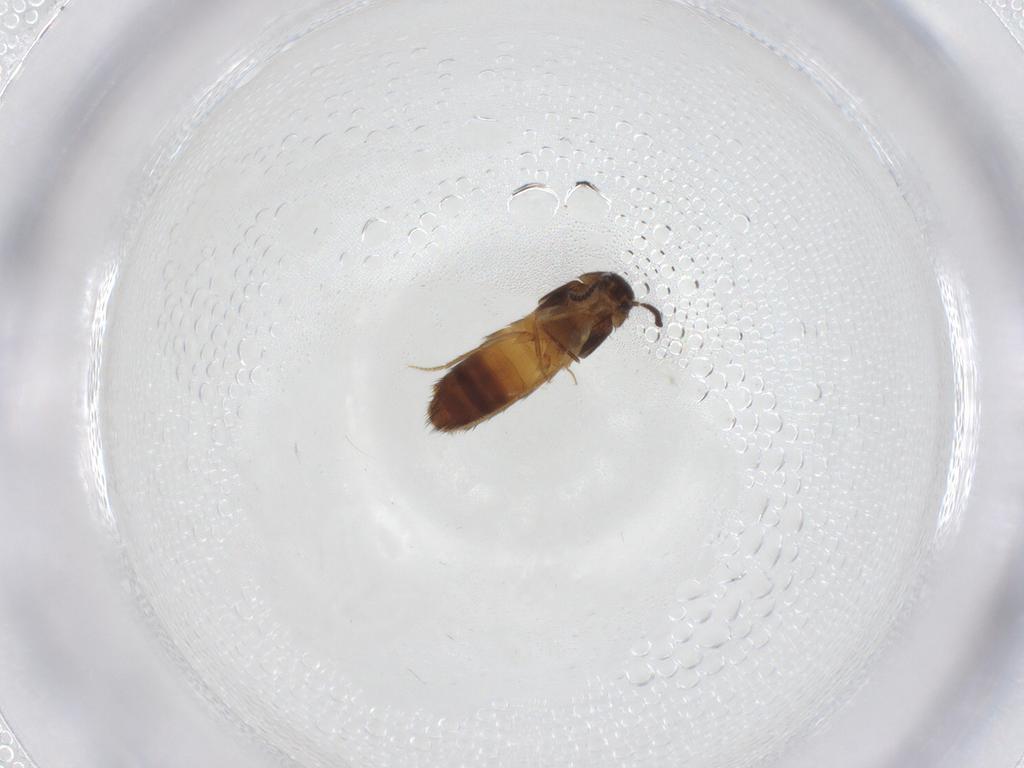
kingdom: Animalia
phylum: Arthropoda
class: Insecta
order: Coleoptera
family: Staphylinidae
